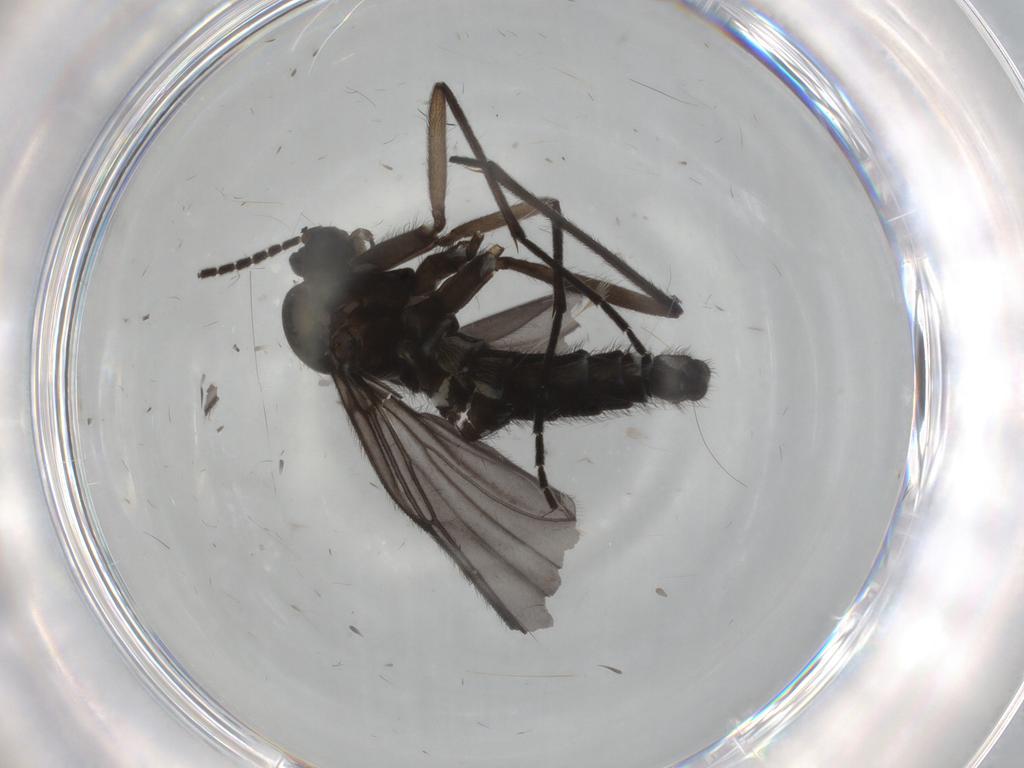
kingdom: Animalia
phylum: Arthropoda
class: Insecta
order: Diptera
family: Sciaridae
